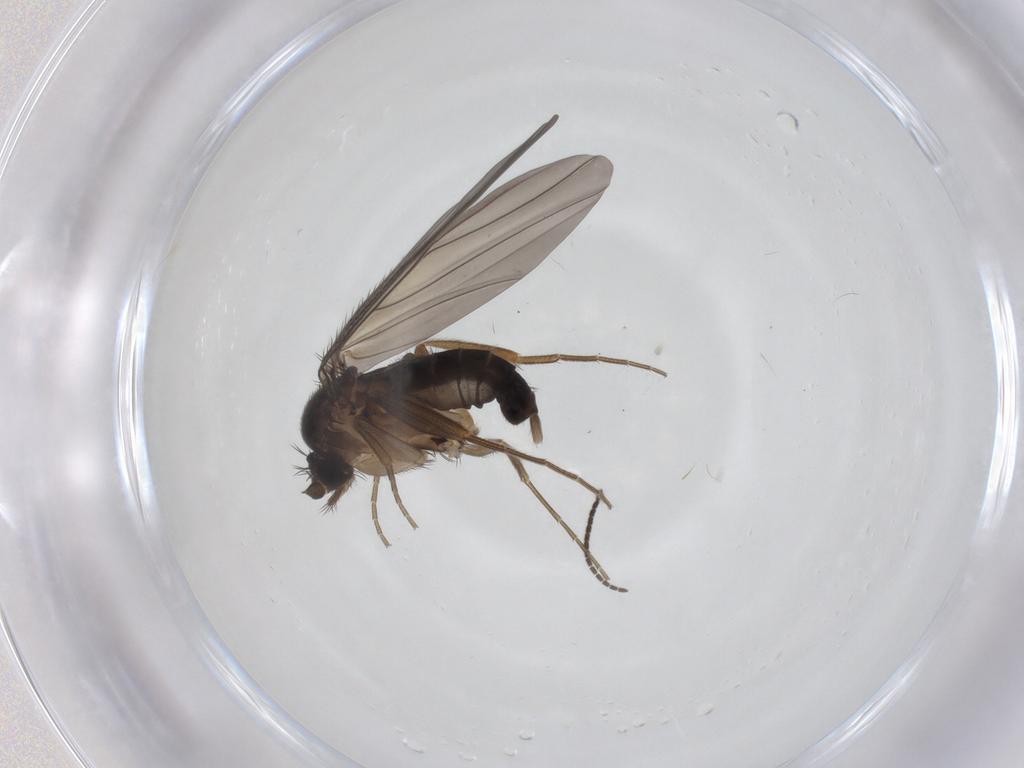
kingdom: Animalia
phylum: Arthropoda
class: Insecta
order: Diptera
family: Phoridae
